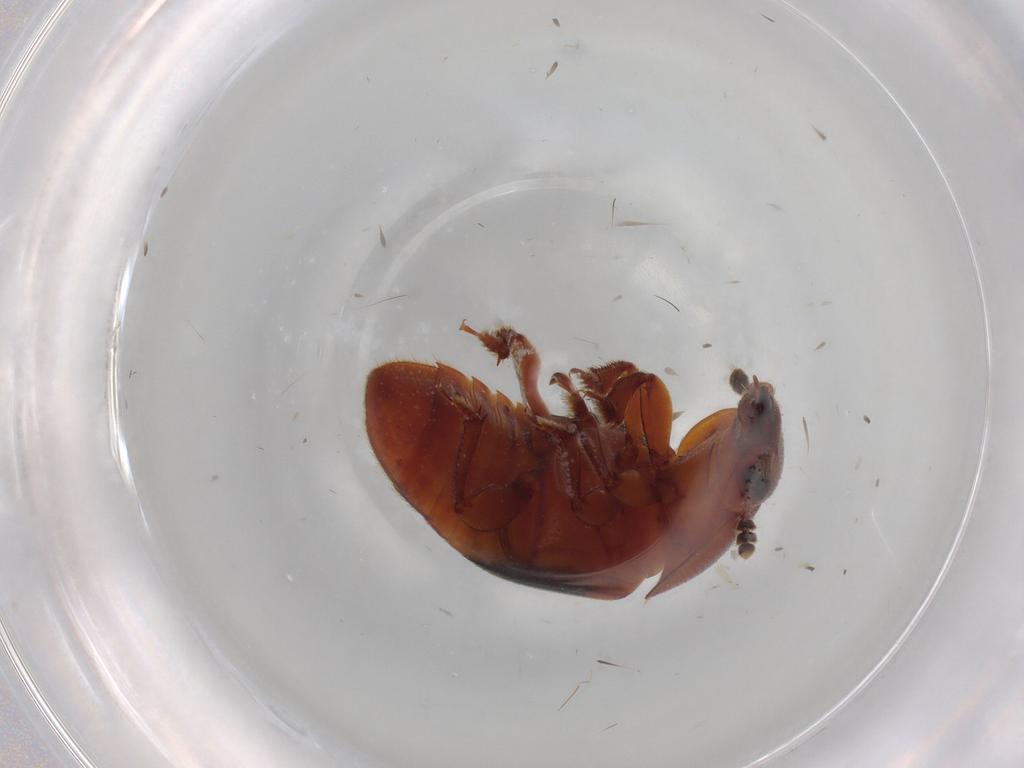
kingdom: Animalia
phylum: Arthropoda
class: Insecta
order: Coleoptera
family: Nitidulidae
